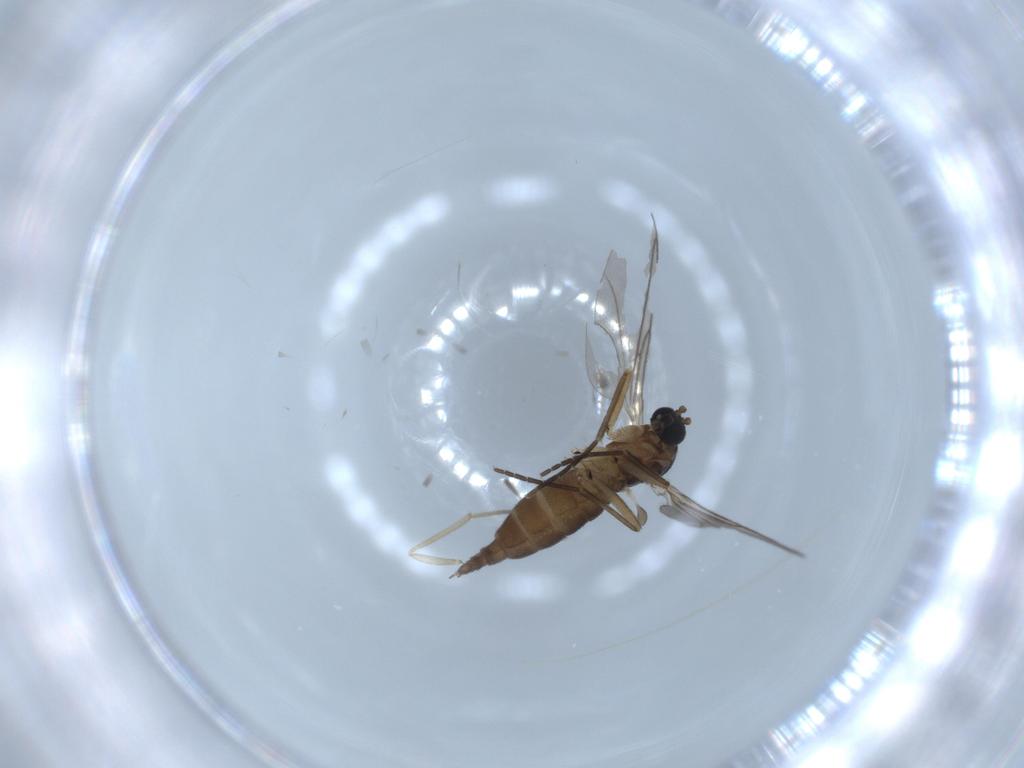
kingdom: Animalia
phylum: Arthropoda
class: Insecta
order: Diptera
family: Sciaridae
